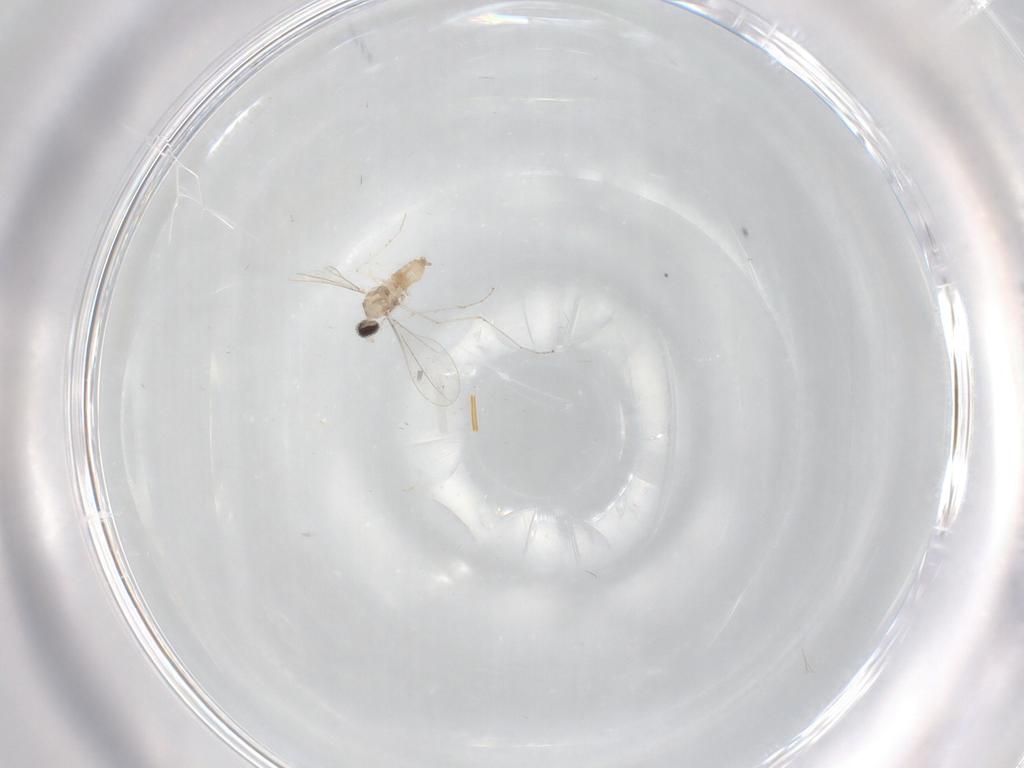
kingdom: Animalia
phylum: Arthropoda
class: Insecta
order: Diptera
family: Cecidomyiidae
